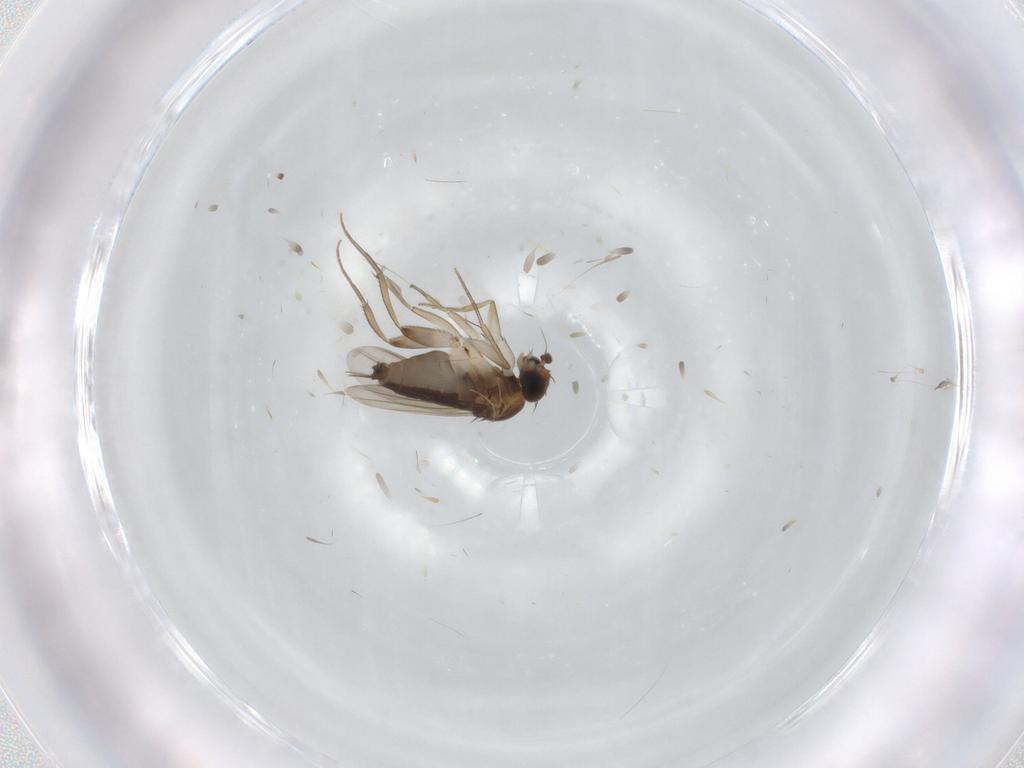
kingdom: Animalia
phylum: Arthropoda
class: Insecta
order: Diptera
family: Phoridae
